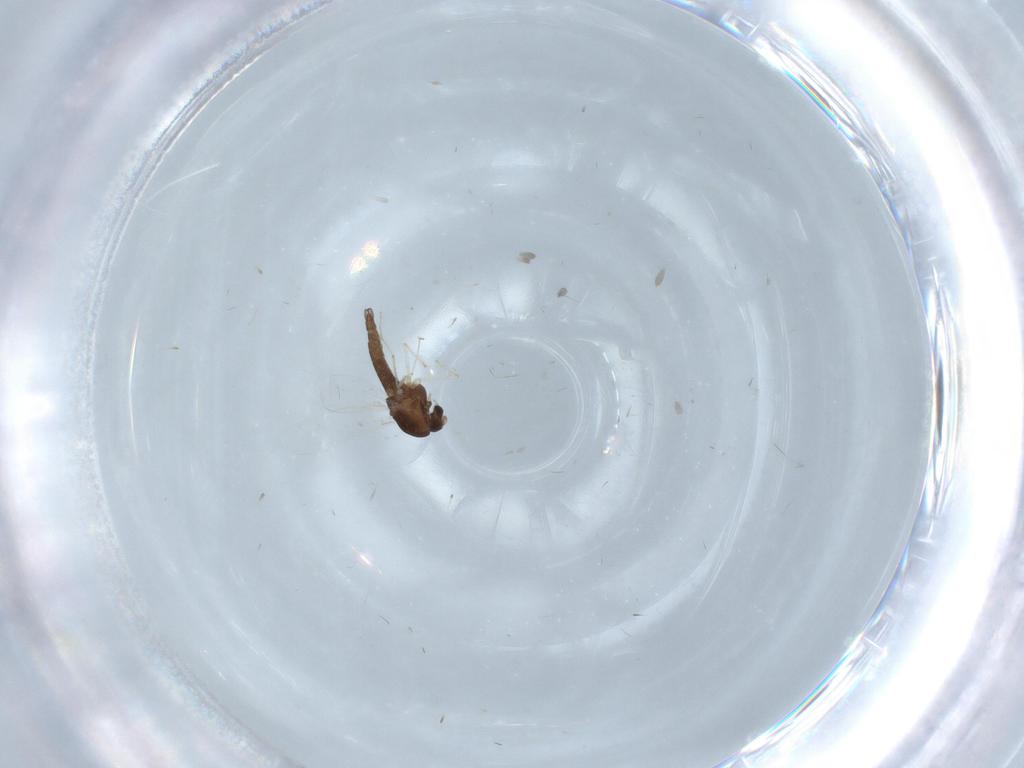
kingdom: Animalia
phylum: Arthropoda
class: Insecta
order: Diptera
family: Chironomidae
